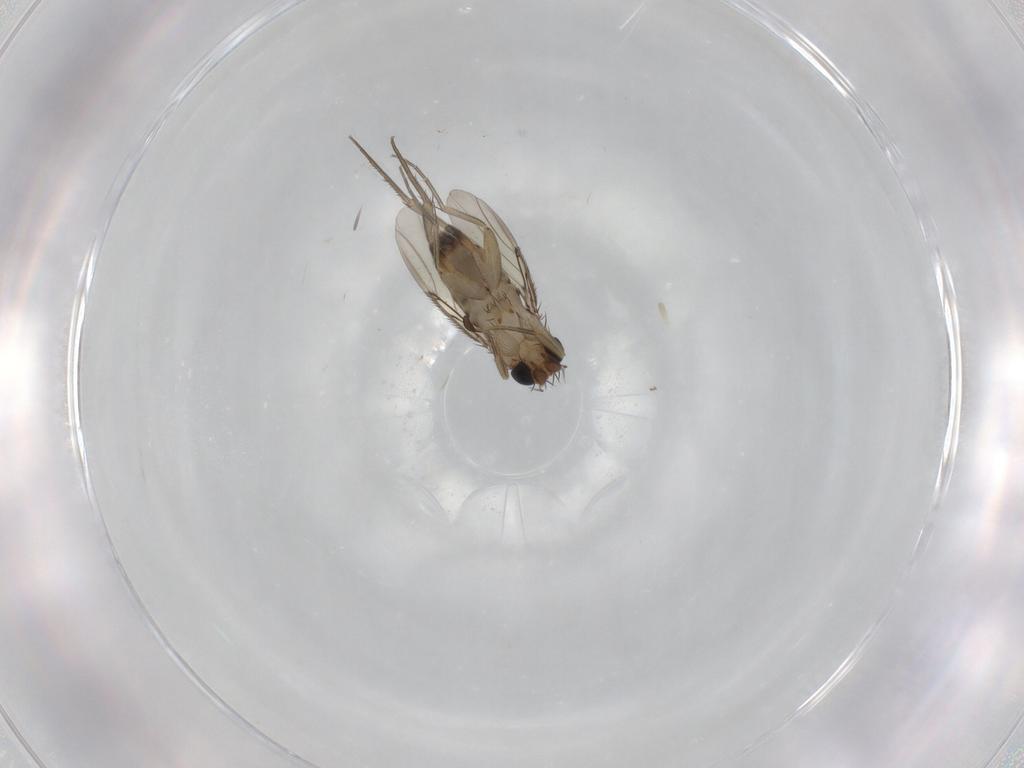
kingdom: Animalia
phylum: Arthropoda
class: Insecta
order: Diptera
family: Phoridae
